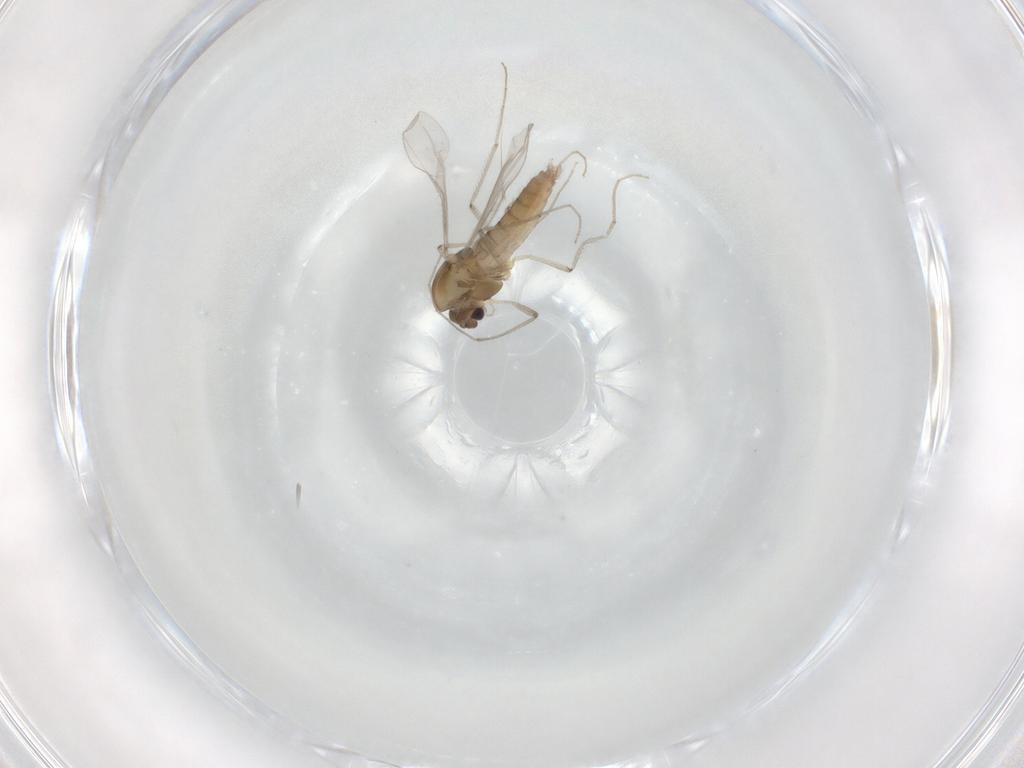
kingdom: Animalia
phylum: Arthropoda
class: Insecta
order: Diptera
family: Chironomidae
